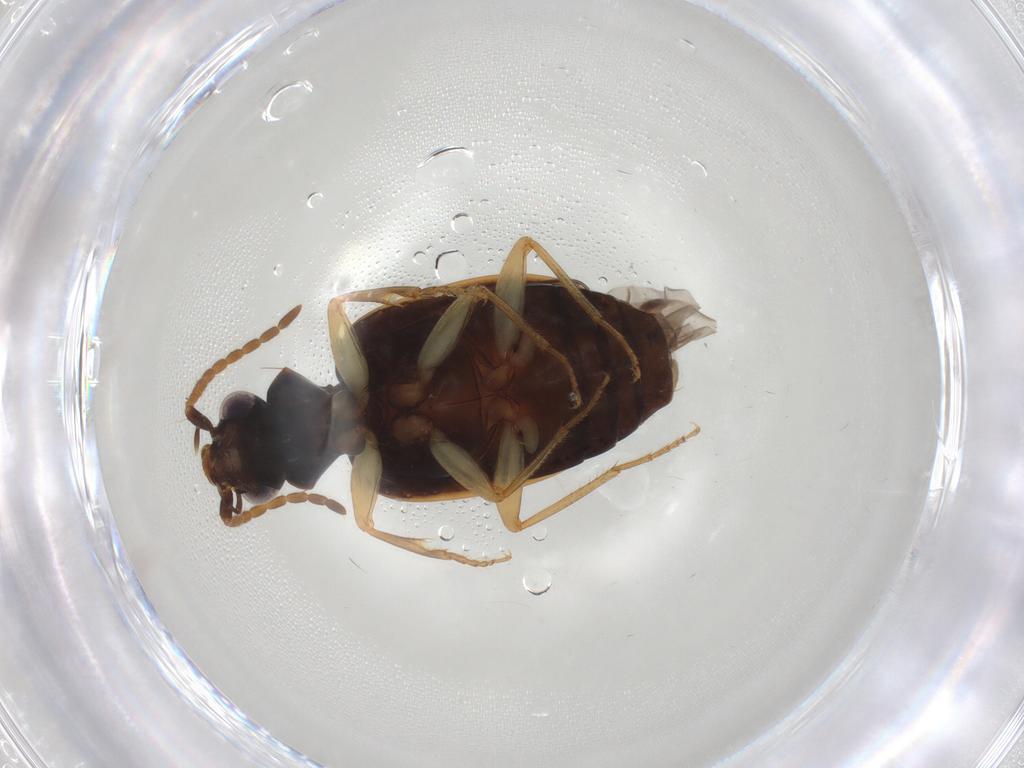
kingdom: Animalia
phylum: Arthropoda
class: Insecta
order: Coleoptera
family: Carabidae
